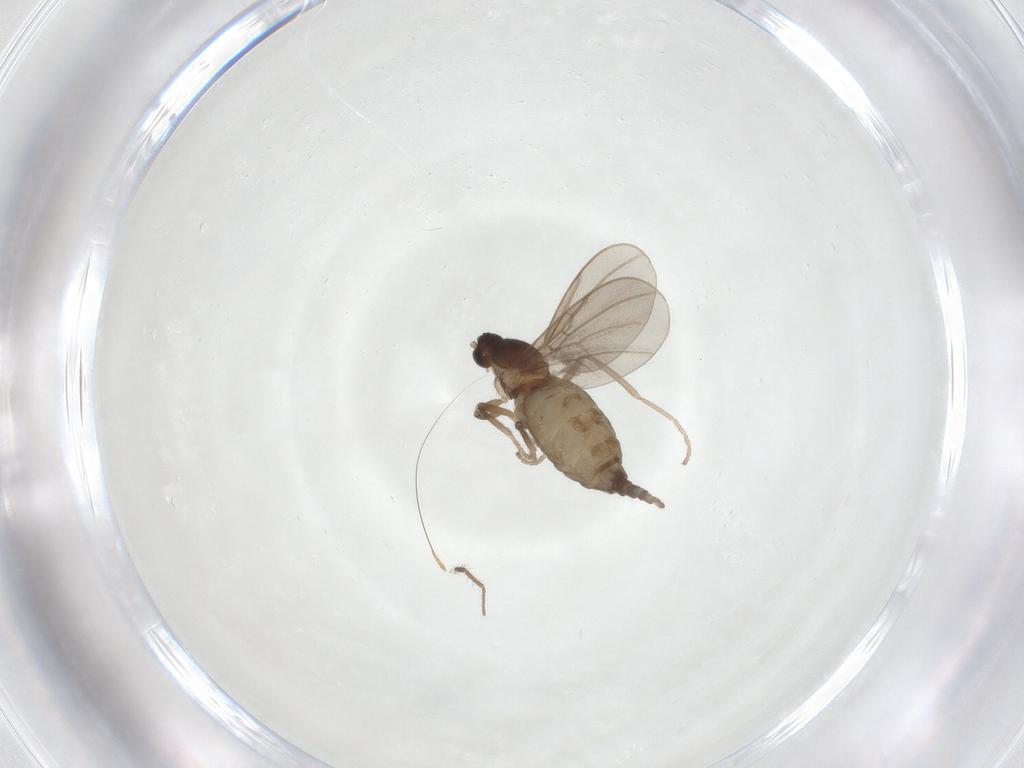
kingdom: Animalia
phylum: Arthropoda
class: Insecta
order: Diptera
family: Cecidomyiidae
